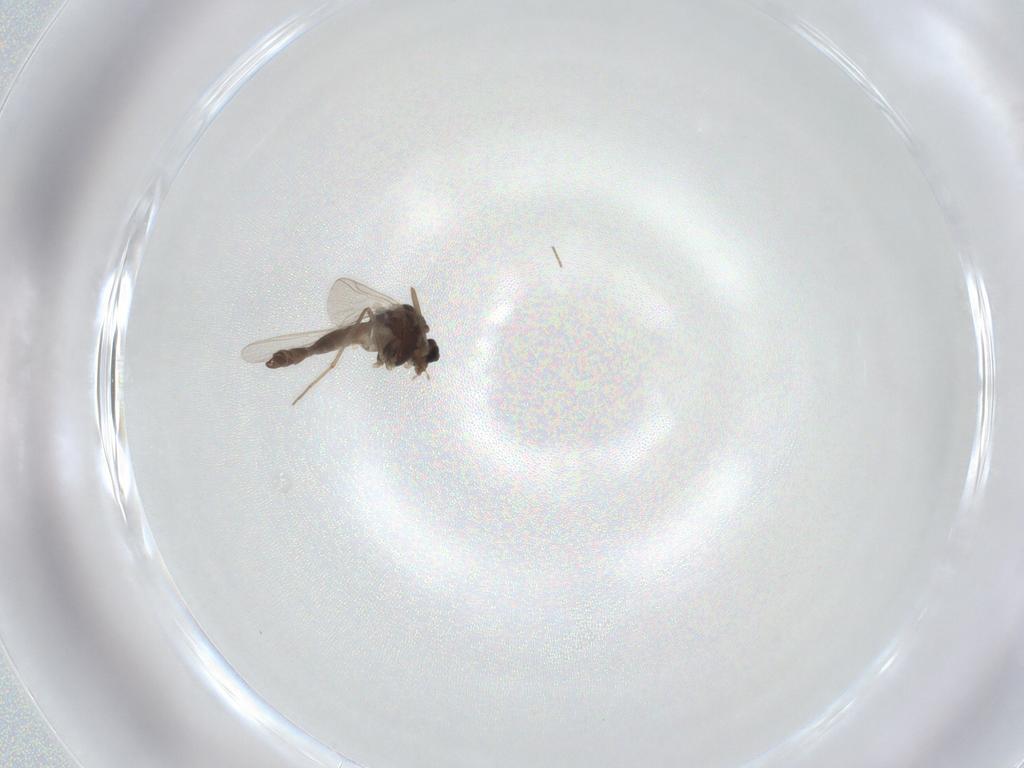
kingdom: Animalia
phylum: Arthropoda
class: Insecta
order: Diptera
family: Muscidae
